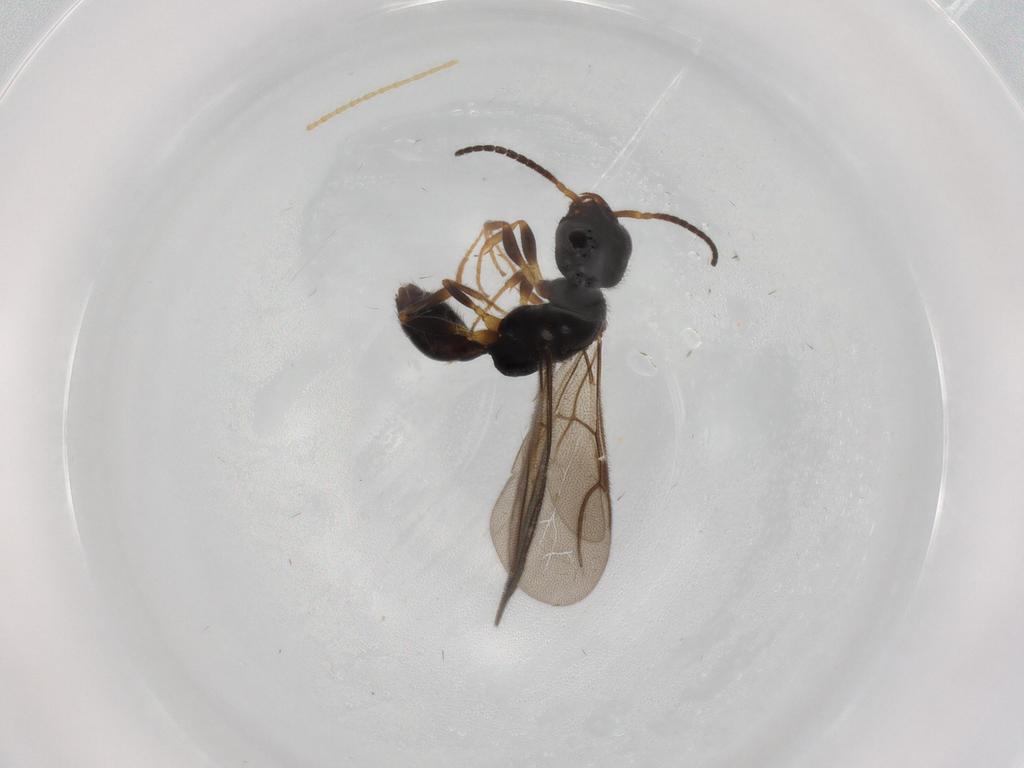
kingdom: Animalia
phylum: Arthropoda
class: Insecta
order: Hymenoptera
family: Bethylidae
